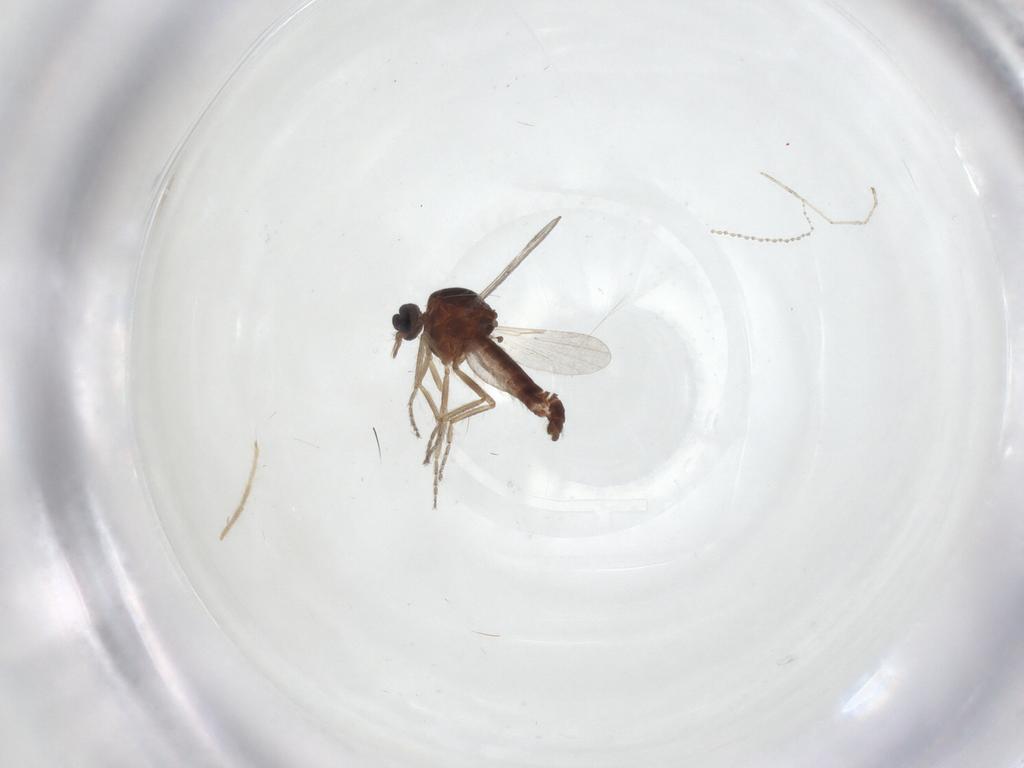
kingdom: Animalia
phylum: Arthropoda
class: Insecta
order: Diptera
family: Ceratopogonidae
